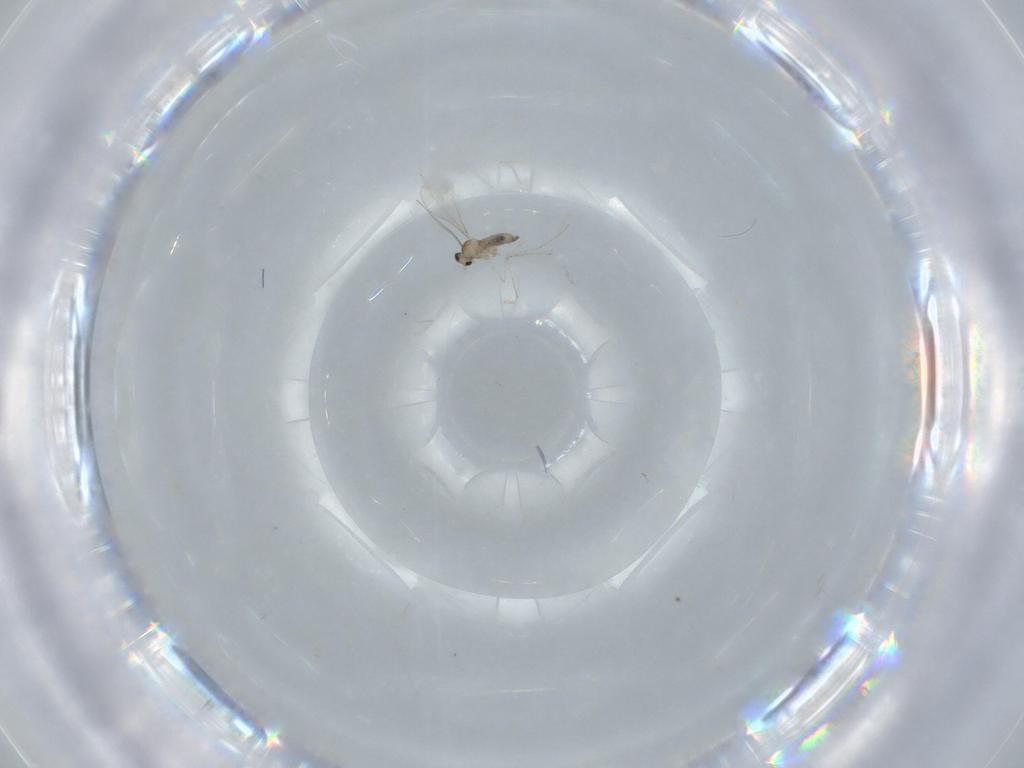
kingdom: Animalia
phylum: Arthropoda
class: Insecta
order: Diptera
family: Cecidomyiidae
